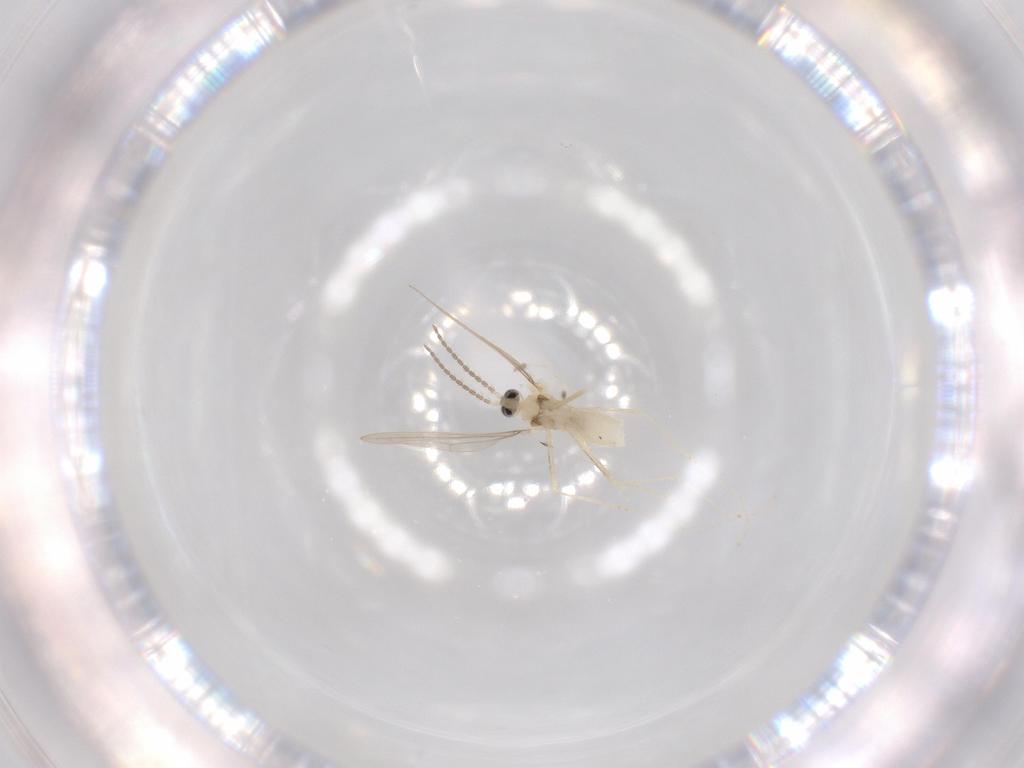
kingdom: Animalia
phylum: Arthropoda
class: Insecta
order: Diptera
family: Cecidomyiidae
